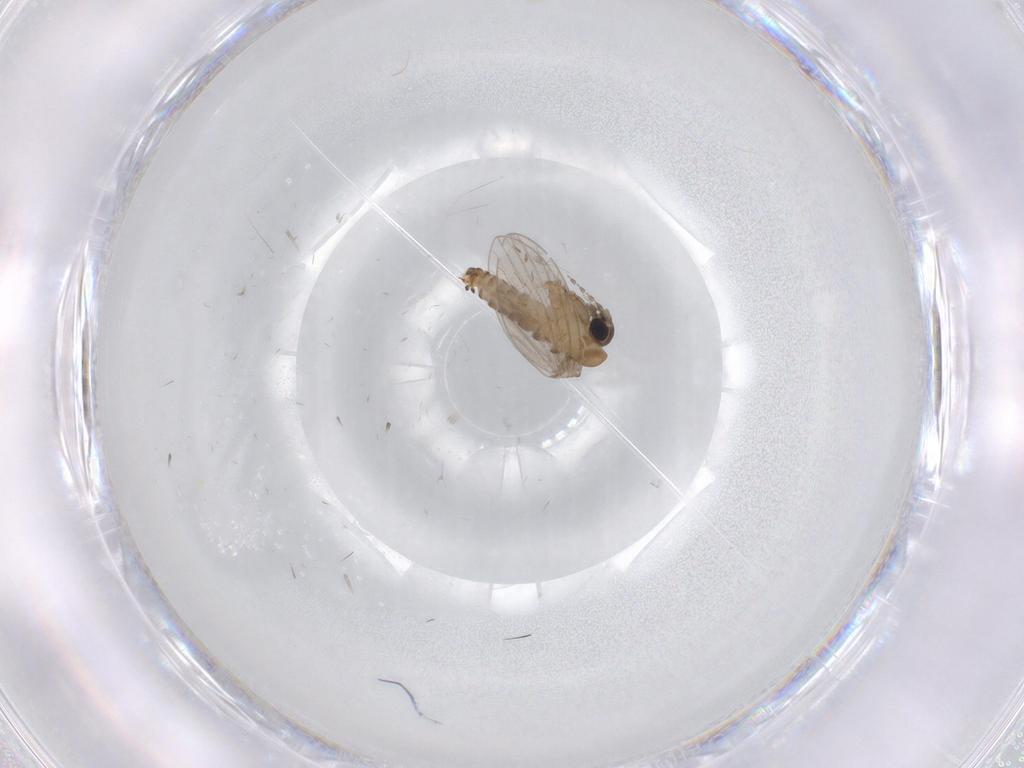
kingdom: Animalia
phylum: Arthropoda
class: Insecta
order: Diptera
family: Phoridae
